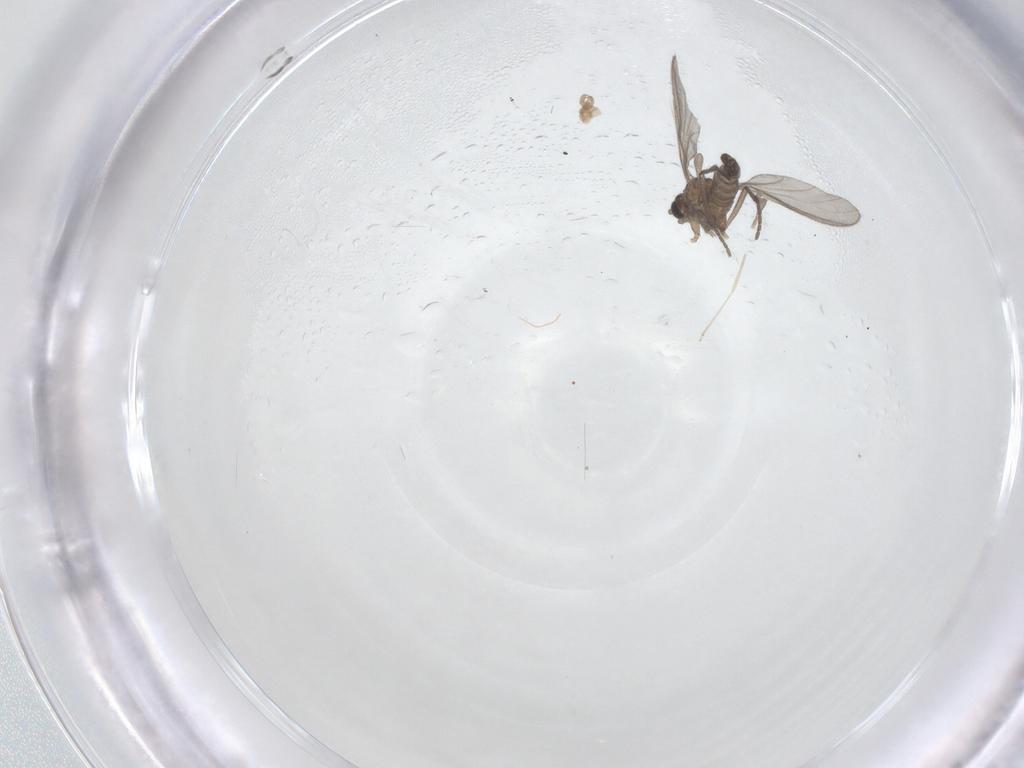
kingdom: Animalia
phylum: Arthropoda
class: Insecta
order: Diptera
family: Sciaridae
